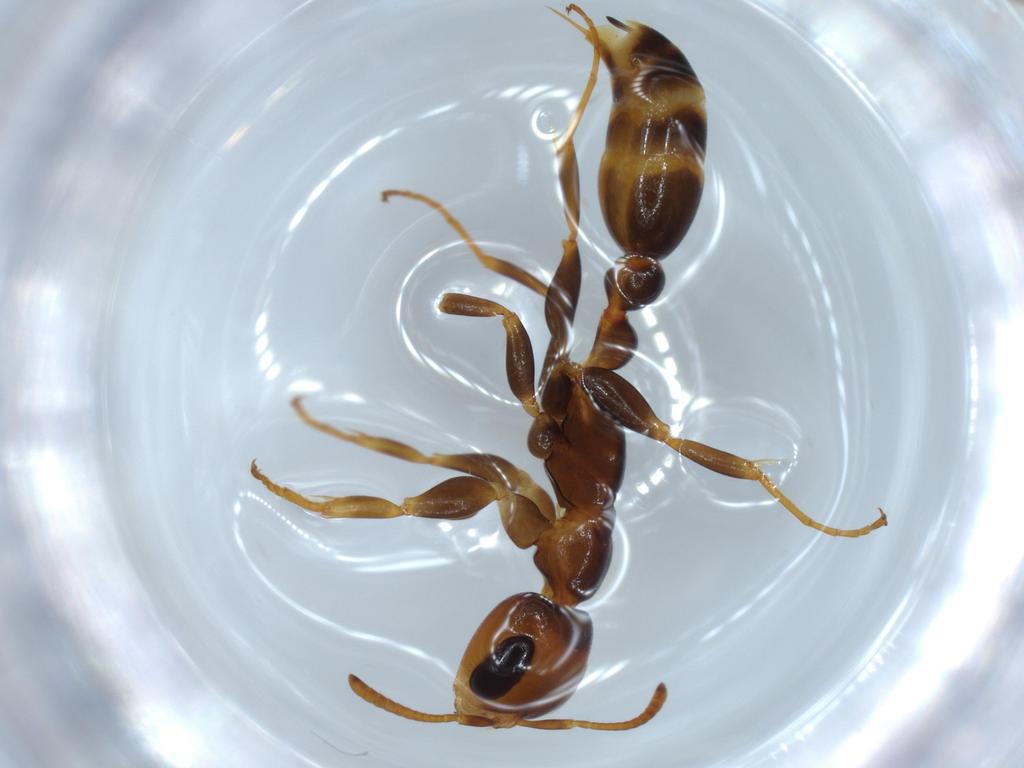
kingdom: Animalia
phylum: Arthropoda
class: Insecta
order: Hymenoptera
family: Formicidae
